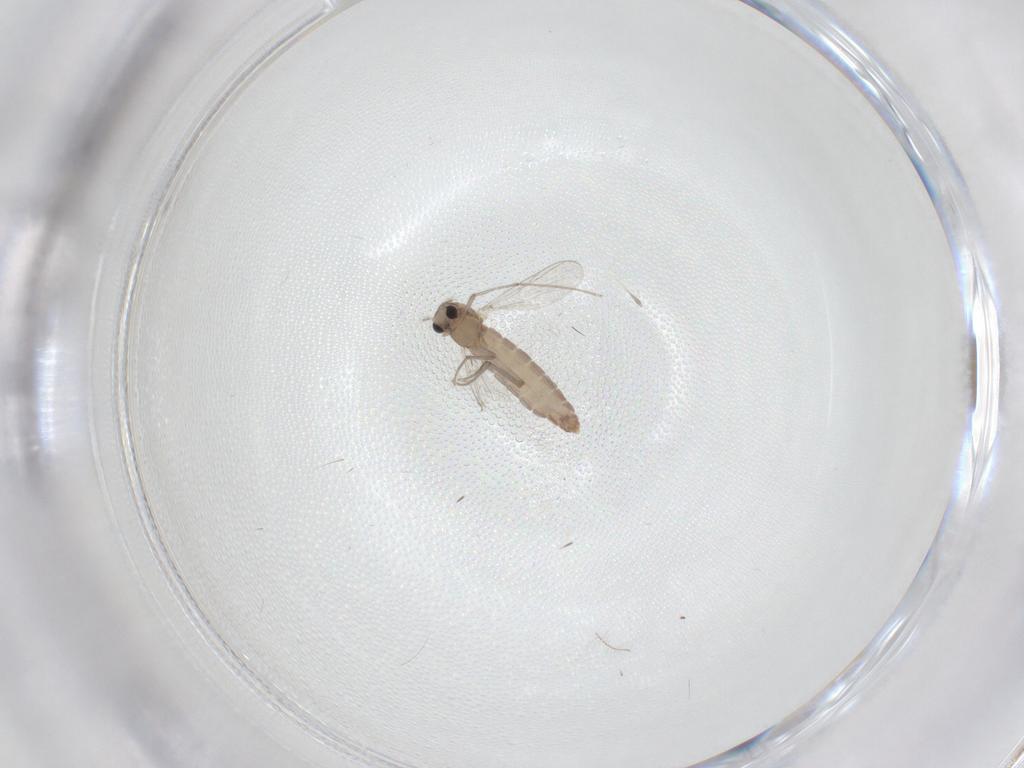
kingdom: Animalia
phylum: Arthropoda
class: Insecta
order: Diptera
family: Chironomidae
